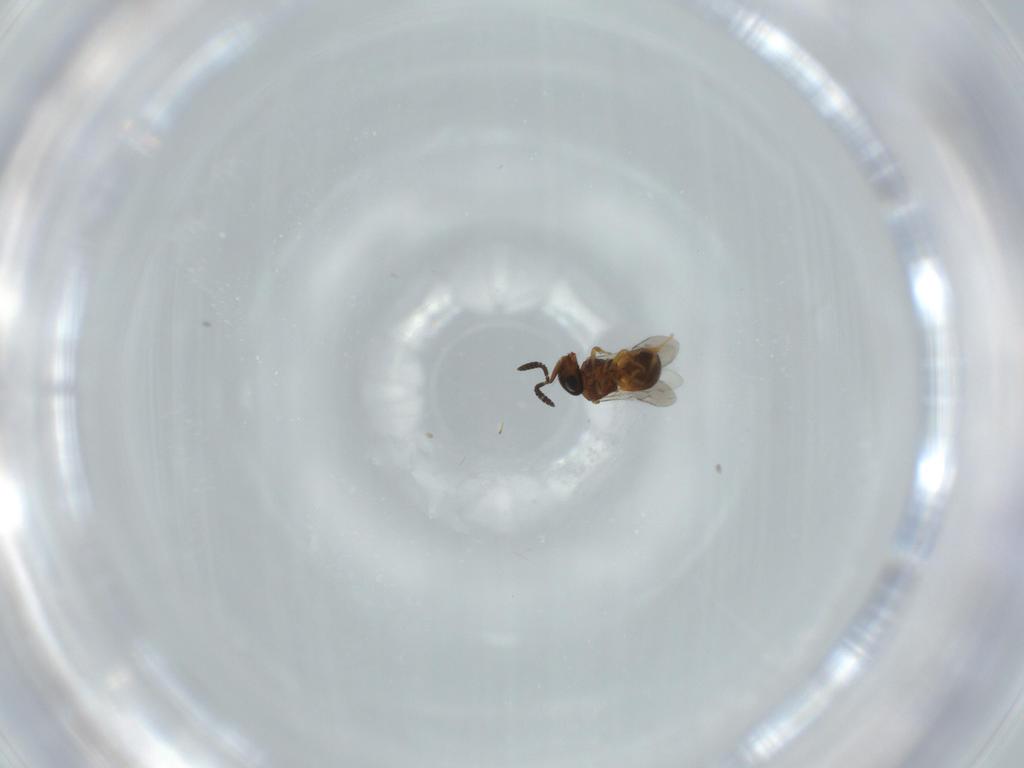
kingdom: Animalia
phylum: Arthropoda
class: Insecta
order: Hymenoptera
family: Scelionidae
